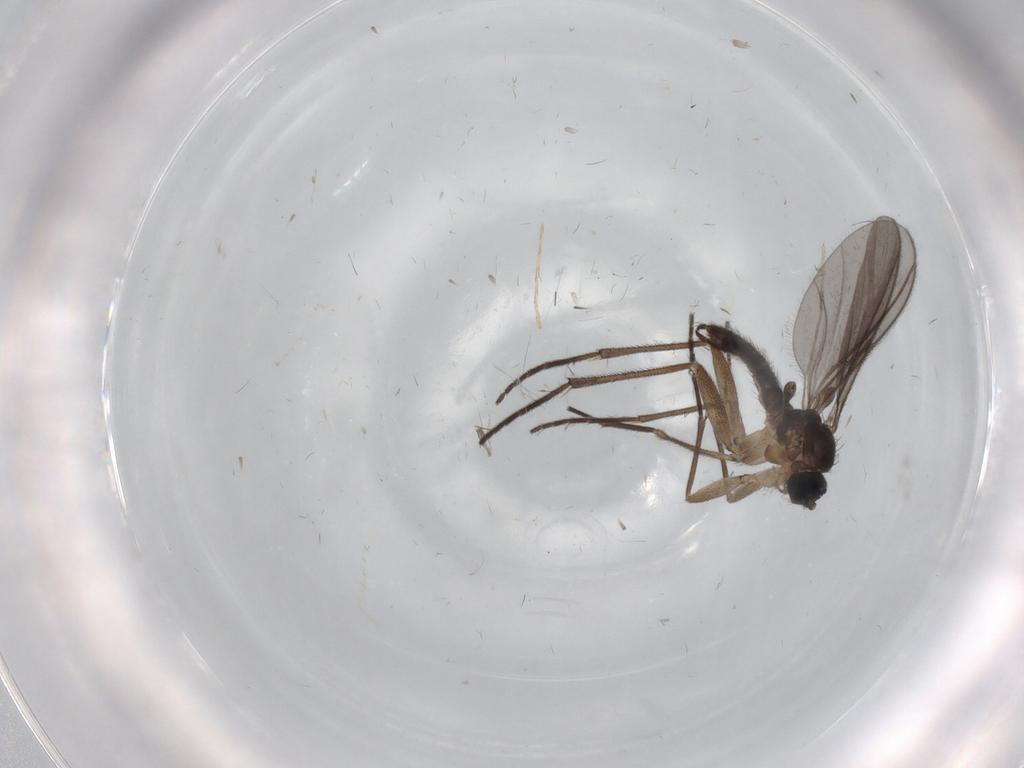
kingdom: Animalia
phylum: Arthropoda
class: Insecta
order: Diptera
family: Sciaridae
